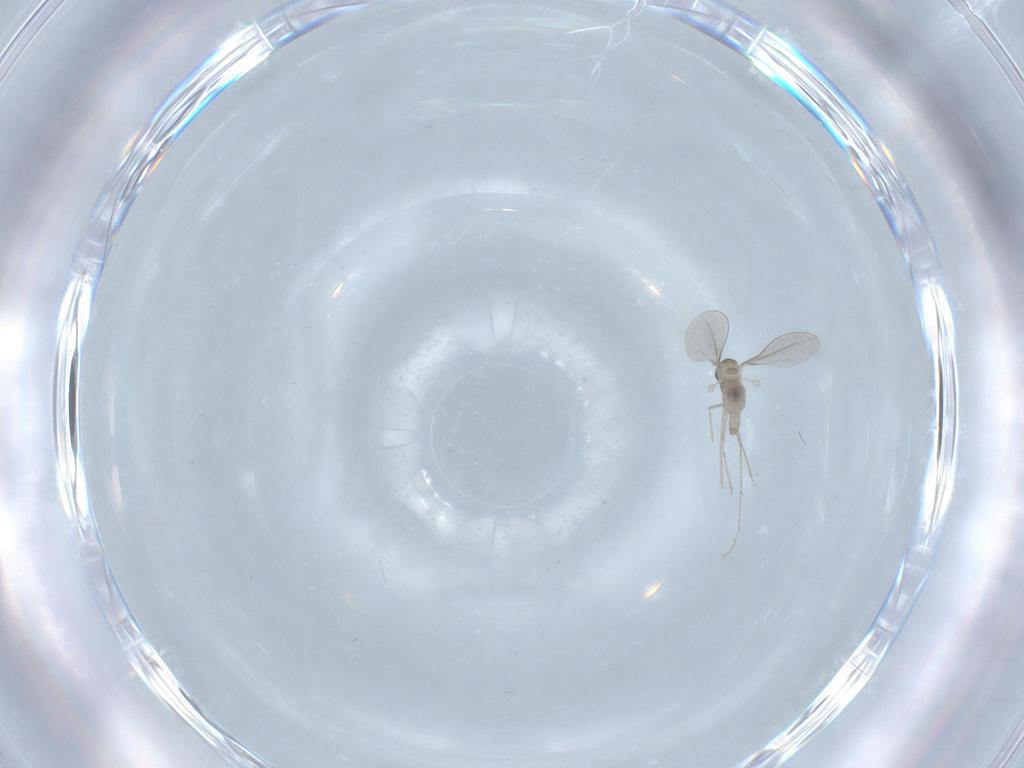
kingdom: Animalia
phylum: Arthropoda
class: Insecta
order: Diptera
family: Cecidomyiidae
